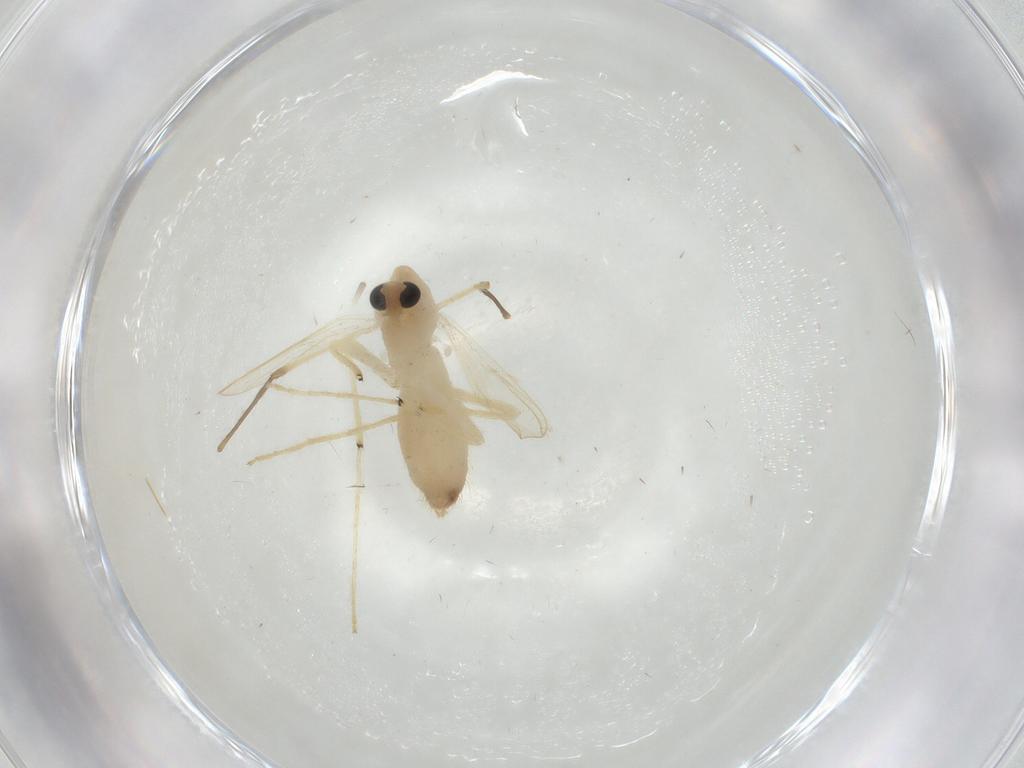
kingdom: Animalia
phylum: Arthropoda
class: Insecta
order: Diptera
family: Chironomidae
